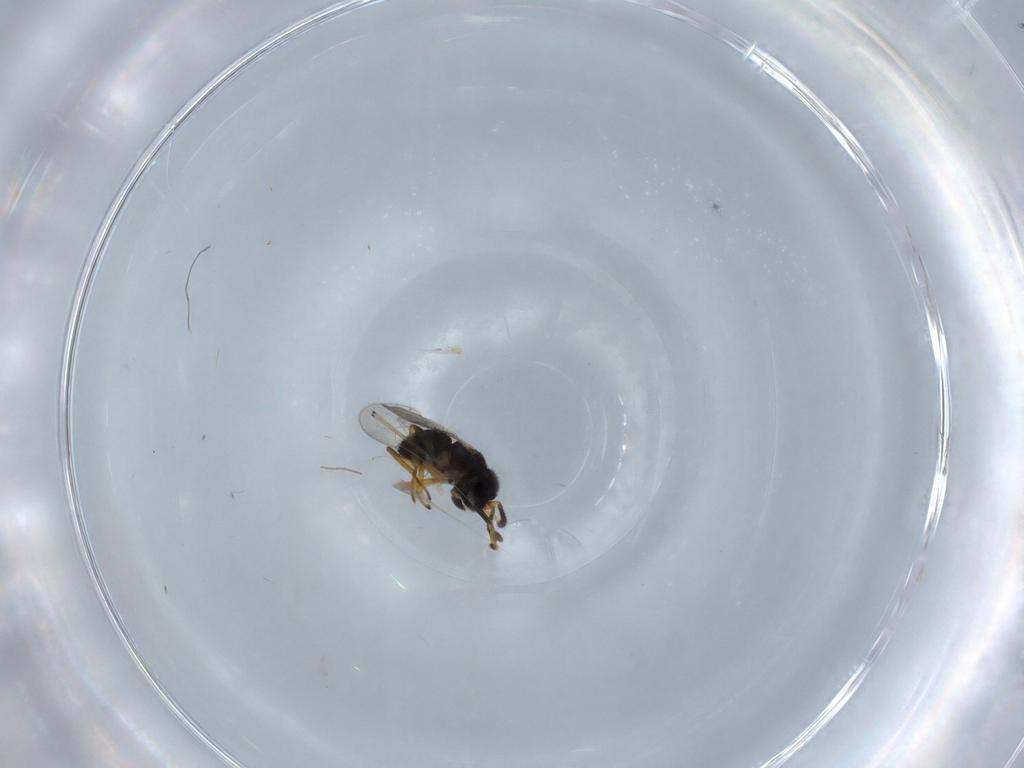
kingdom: Animalia
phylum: Arthropoda
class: Insecta
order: Hymenoptera
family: Platygastridae
